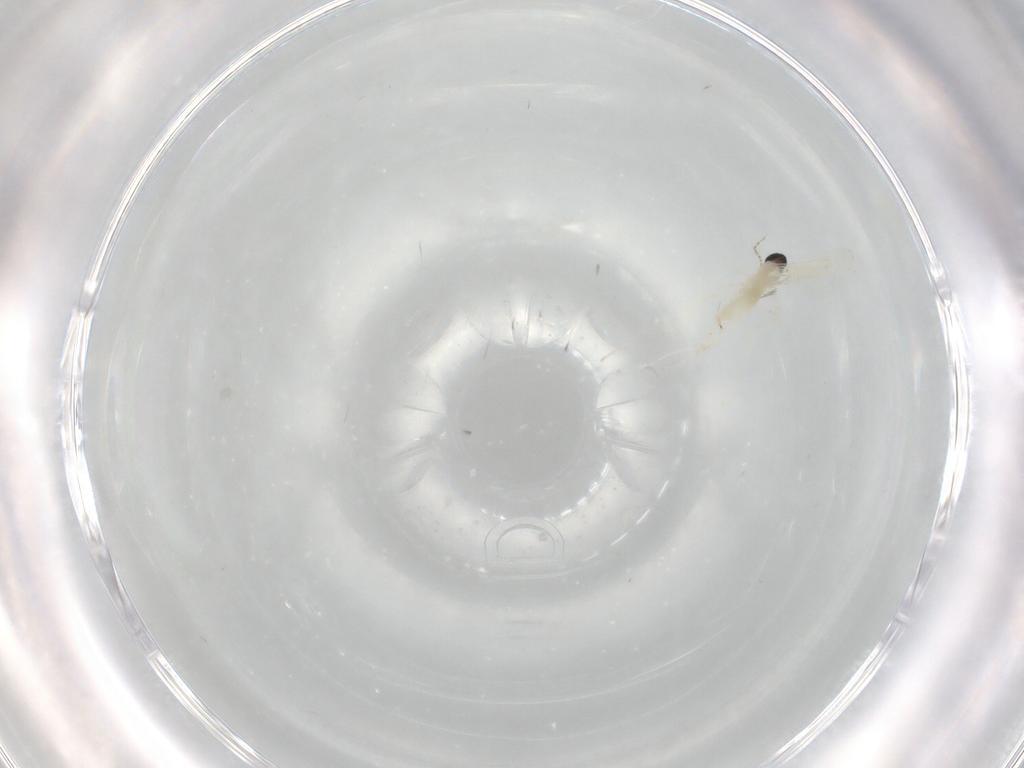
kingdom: Animalia
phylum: Arthropoda
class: Insecta
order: Diptera
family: Cecidomyiidae
